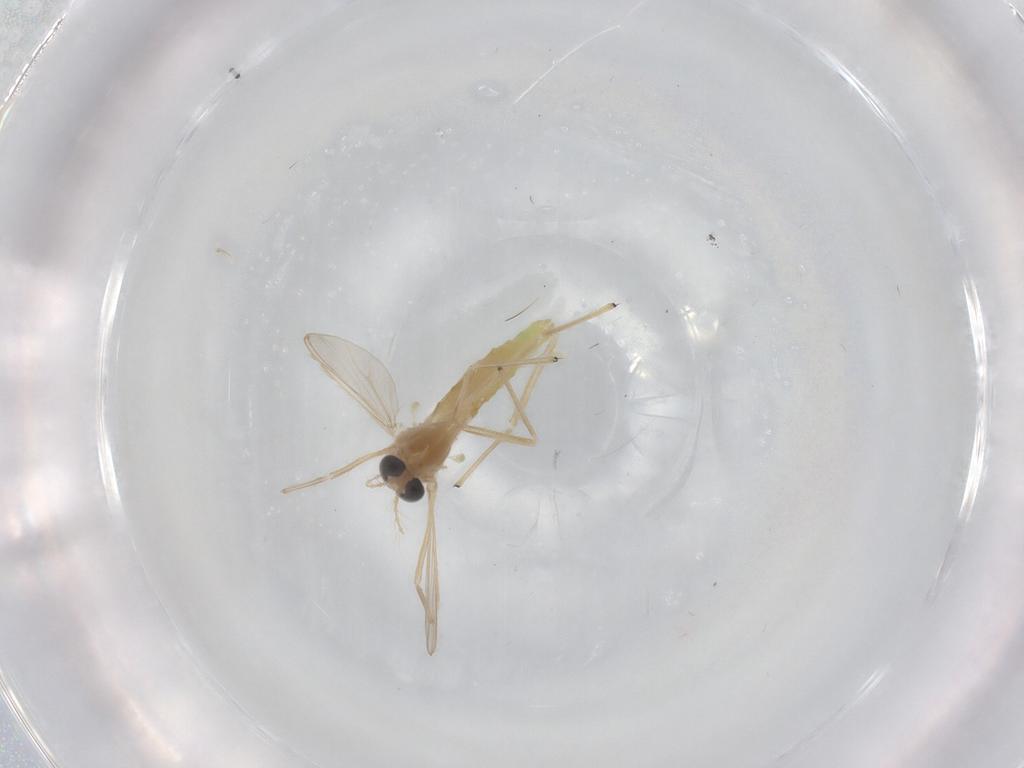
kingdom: Animalia
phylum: Arthropoda
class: Insecta
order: Diptera
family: Chironomidae
